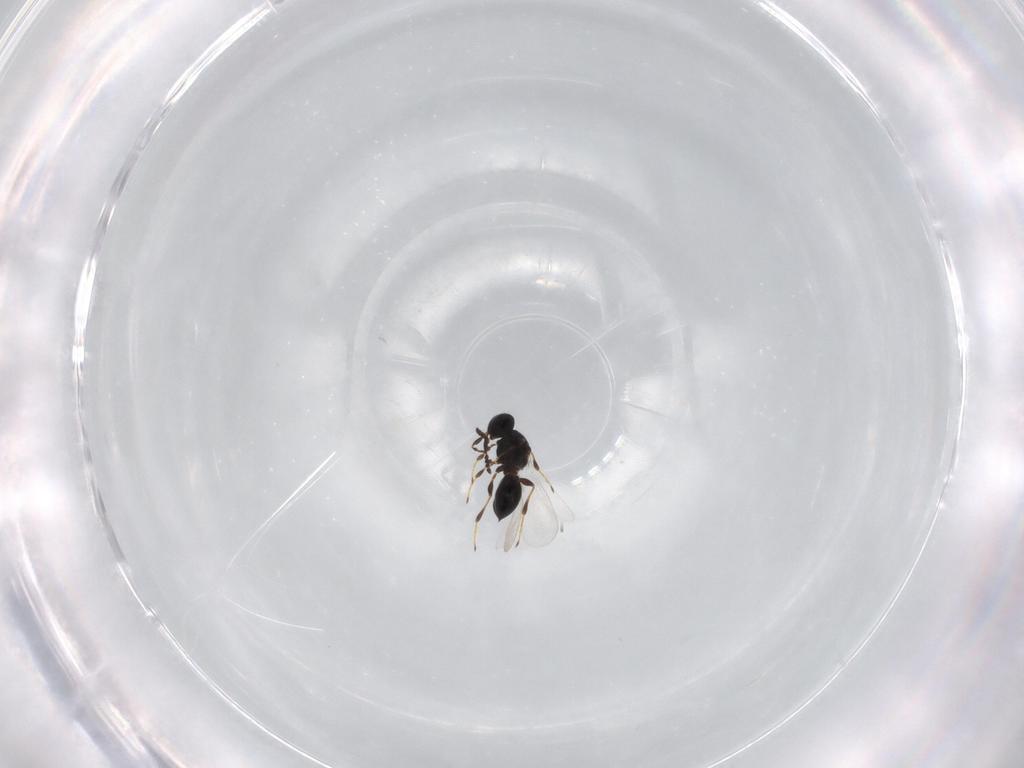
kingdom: Animalia
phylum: Arthropoda
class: Insecta
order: Hymenoptera
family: Platygastridae
